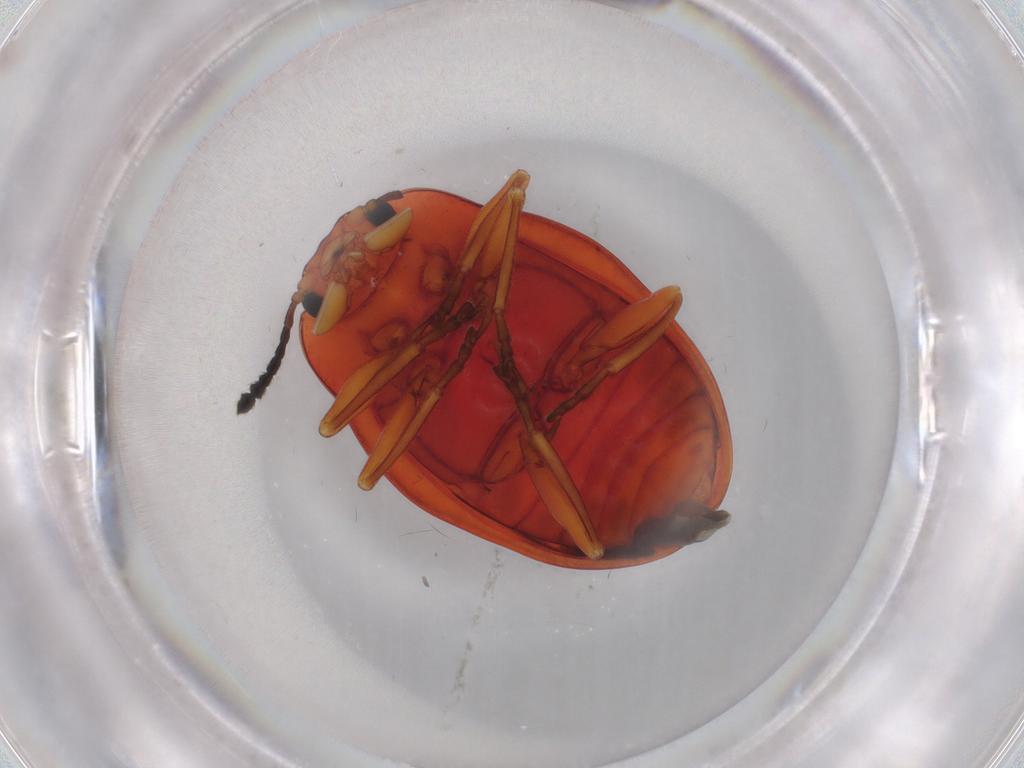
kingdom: Animalia
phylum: Arthropoda
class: Insecta
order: Coleoptera
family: Erotylidae
